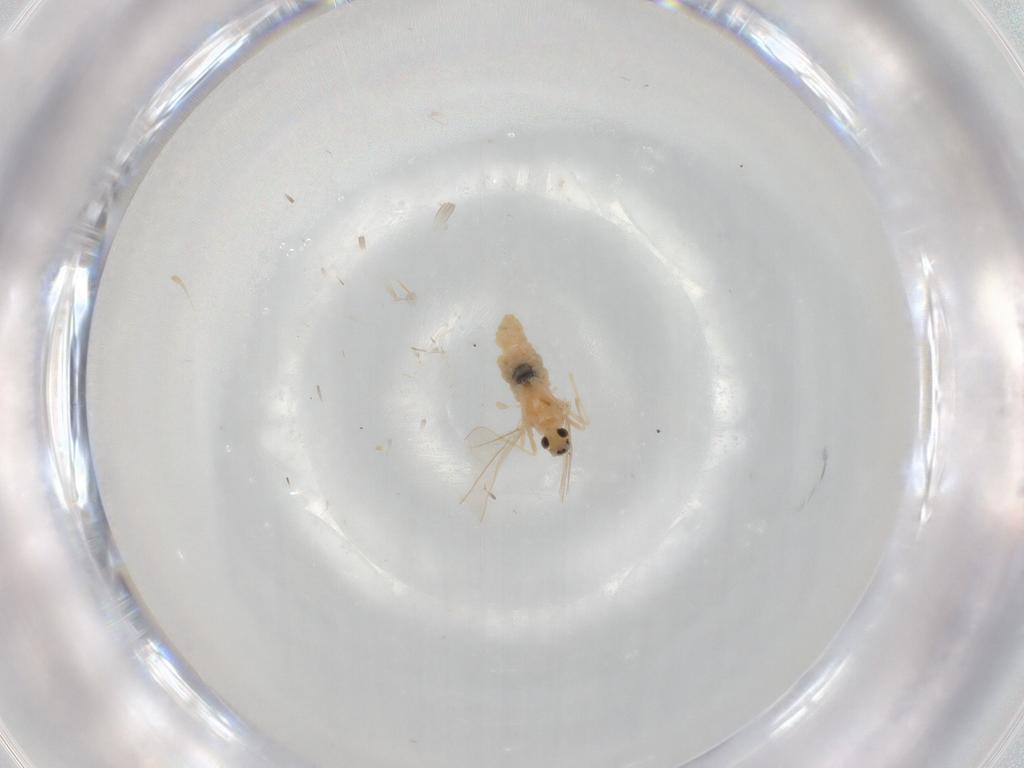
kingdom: Animalia
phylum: Arthropoda
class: Insecta
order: Diptera
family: Cecidomyiidae
